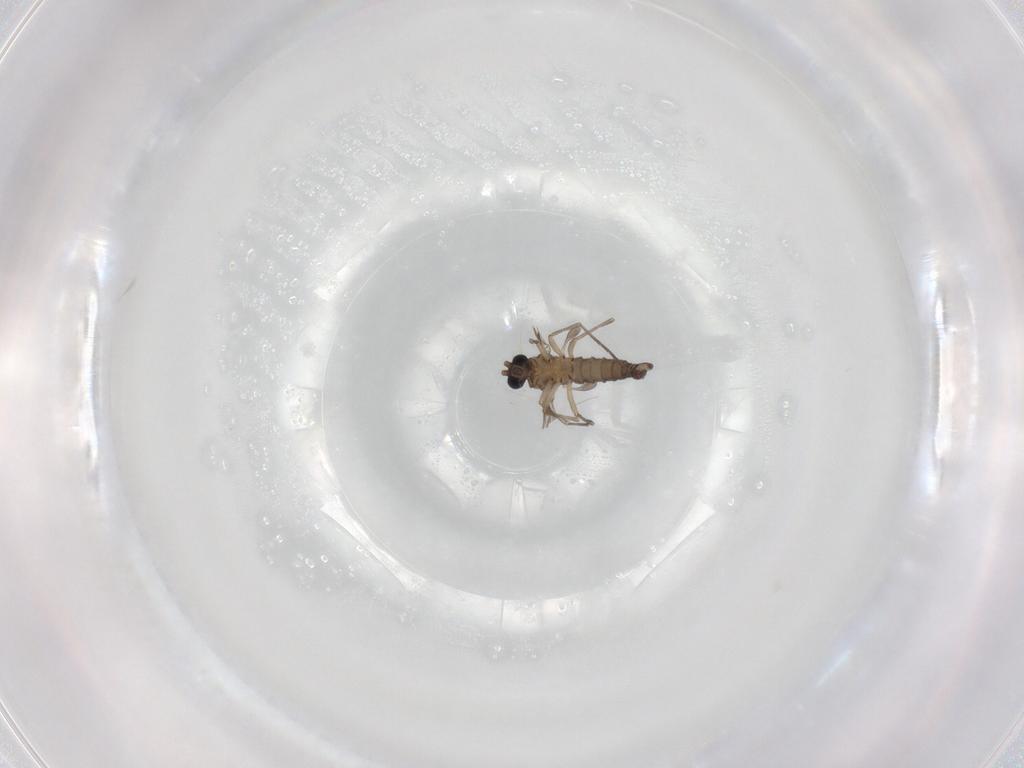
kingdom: Animalia
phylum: Arthropoda
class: Insecta
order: Diptera
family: Sciaridae
